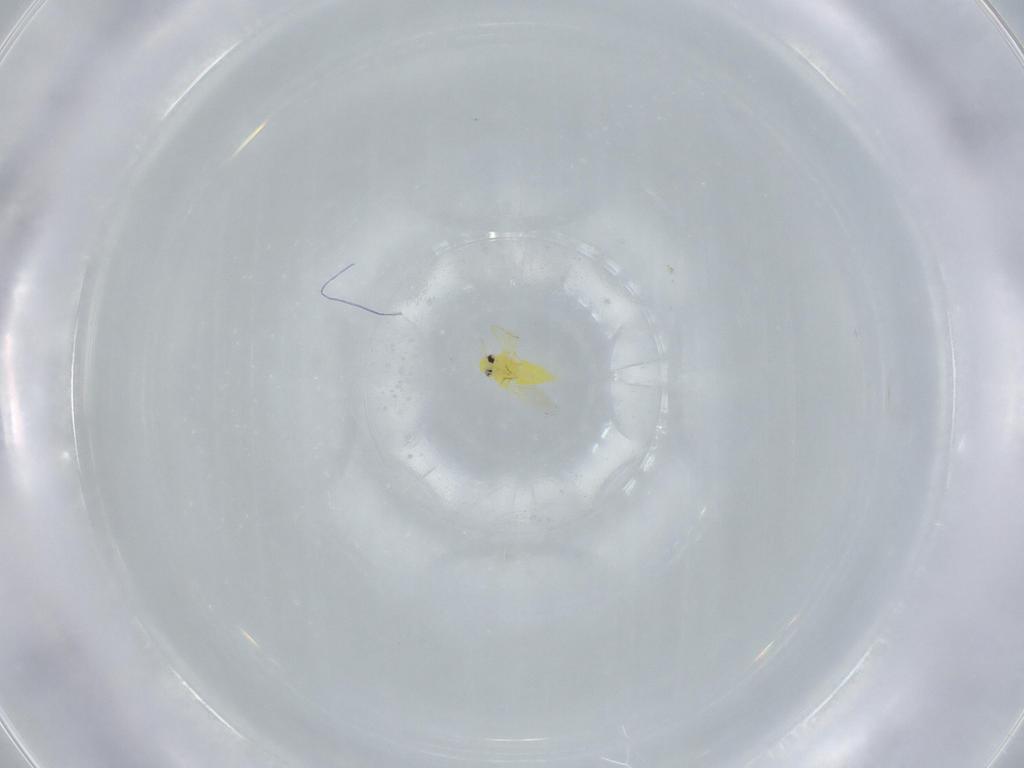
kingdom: Animalia
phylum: Arthropoda
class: Insecta
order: Hemiptera
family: Aleyrodidae
